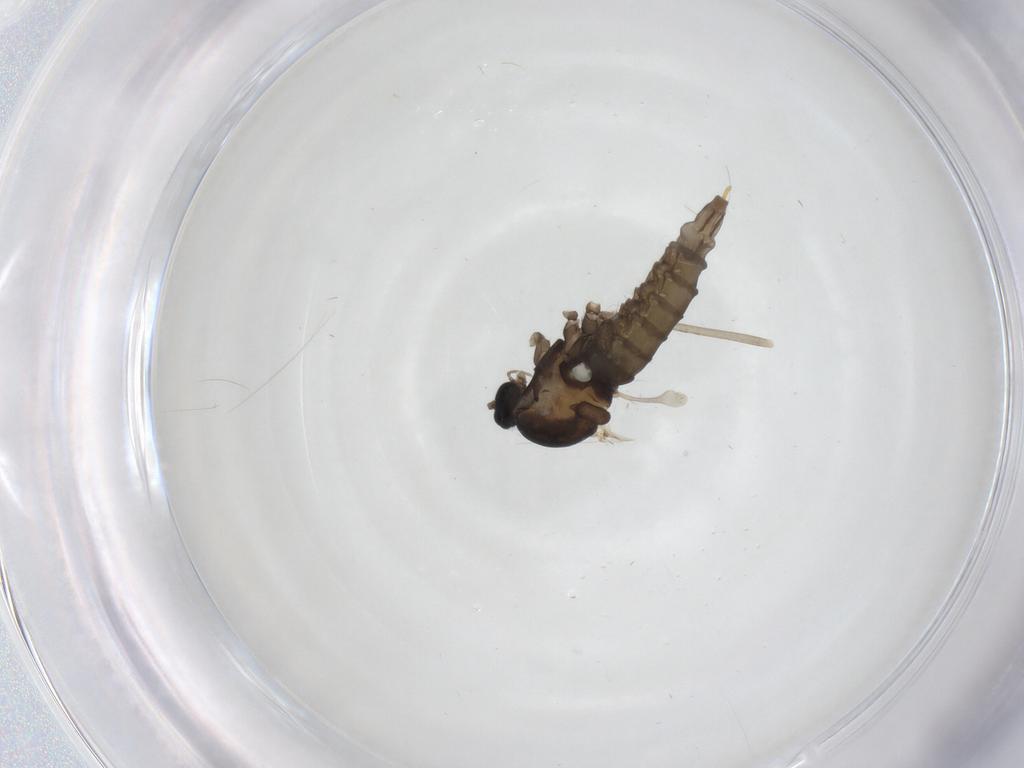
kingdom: Animalia
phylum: Arthropoda
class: Insecta
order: Diptera
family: Cecidomyiidae
